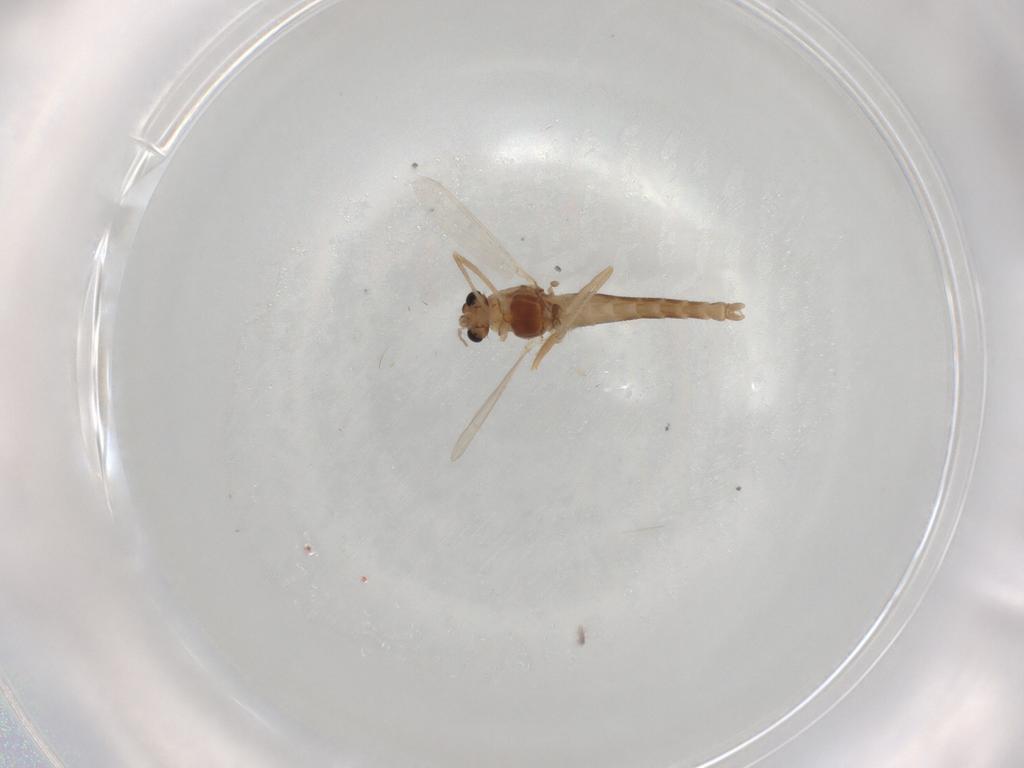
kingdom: Animalia
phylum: Arthropoda
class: Insecta
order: Diptera
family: Chironomidae
